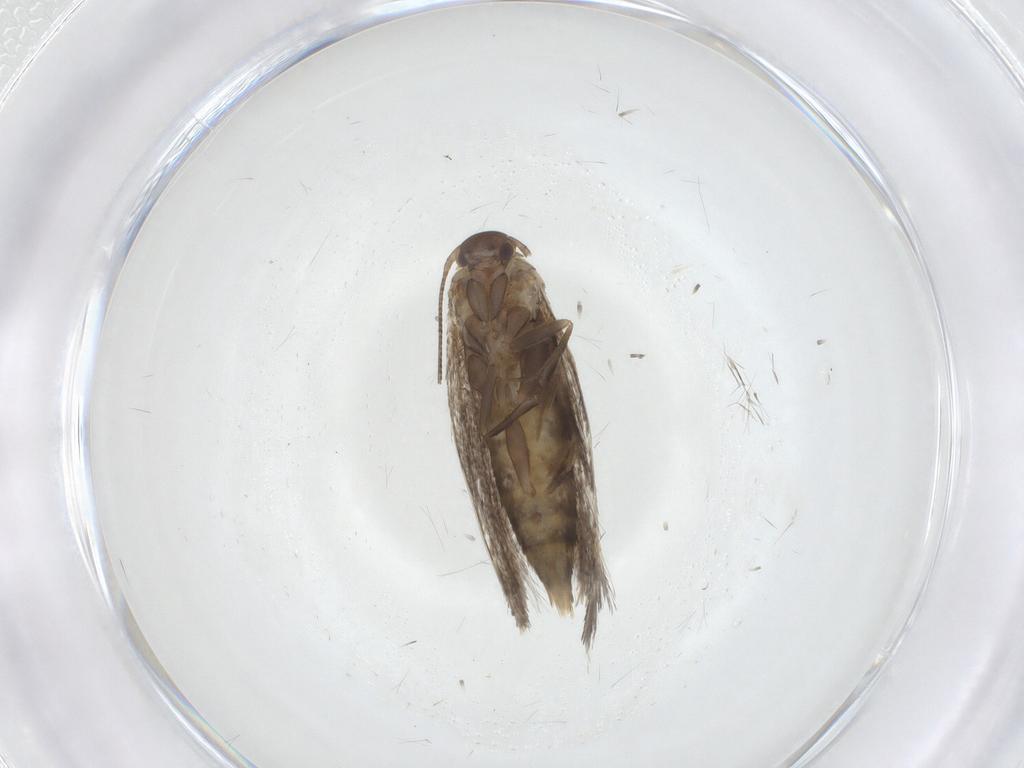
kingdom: Animalia
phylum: Arthropoda
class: Insecta
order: Lepidoptera
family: Elachistidae
